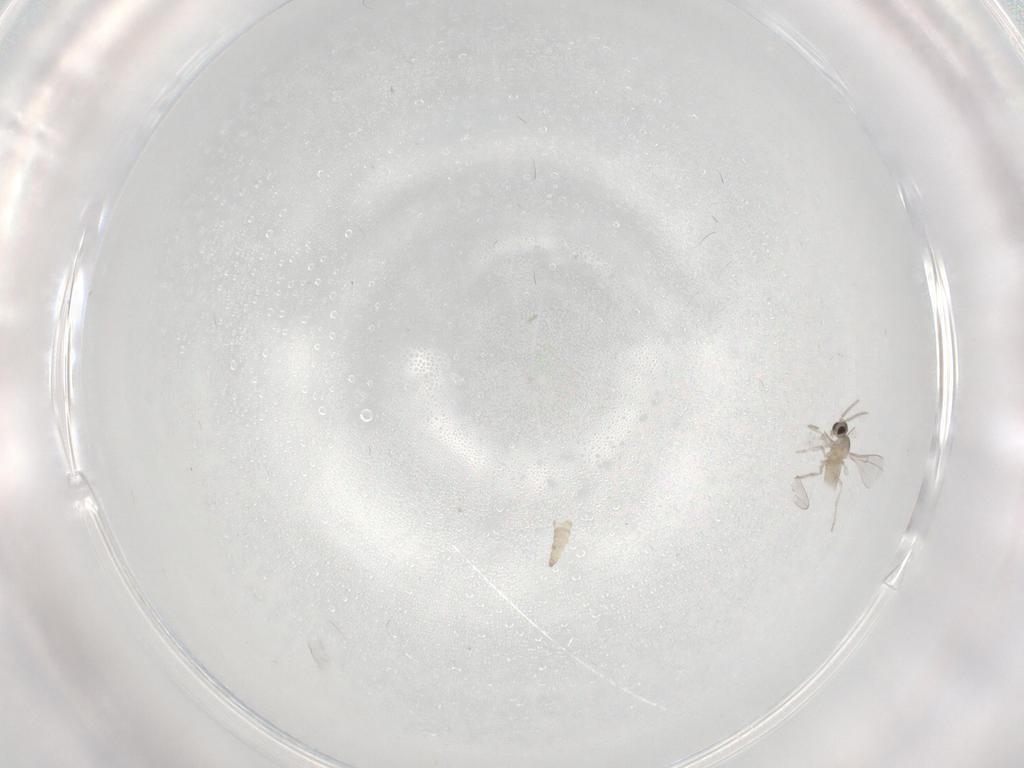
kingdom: Animalia
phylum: Arthropoda
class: Insecta
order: Diptera
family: Cecidomyiidae
